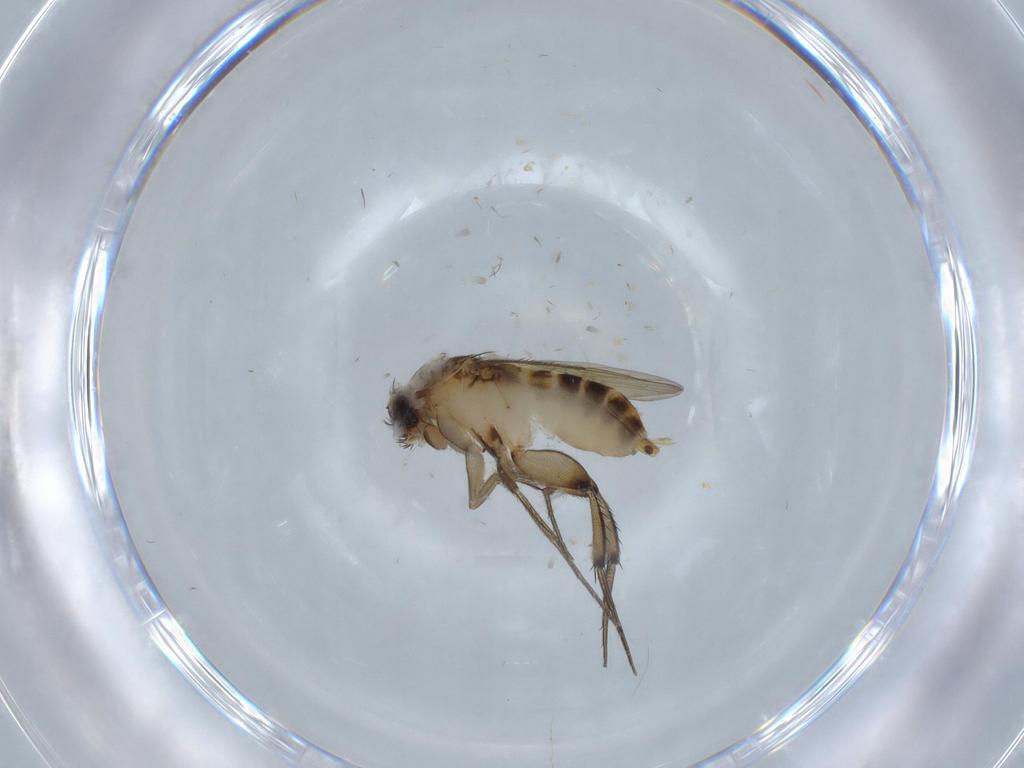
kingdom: Animalia
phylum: Arthropoda
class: Insecta
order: Diptera
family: Phoridae
